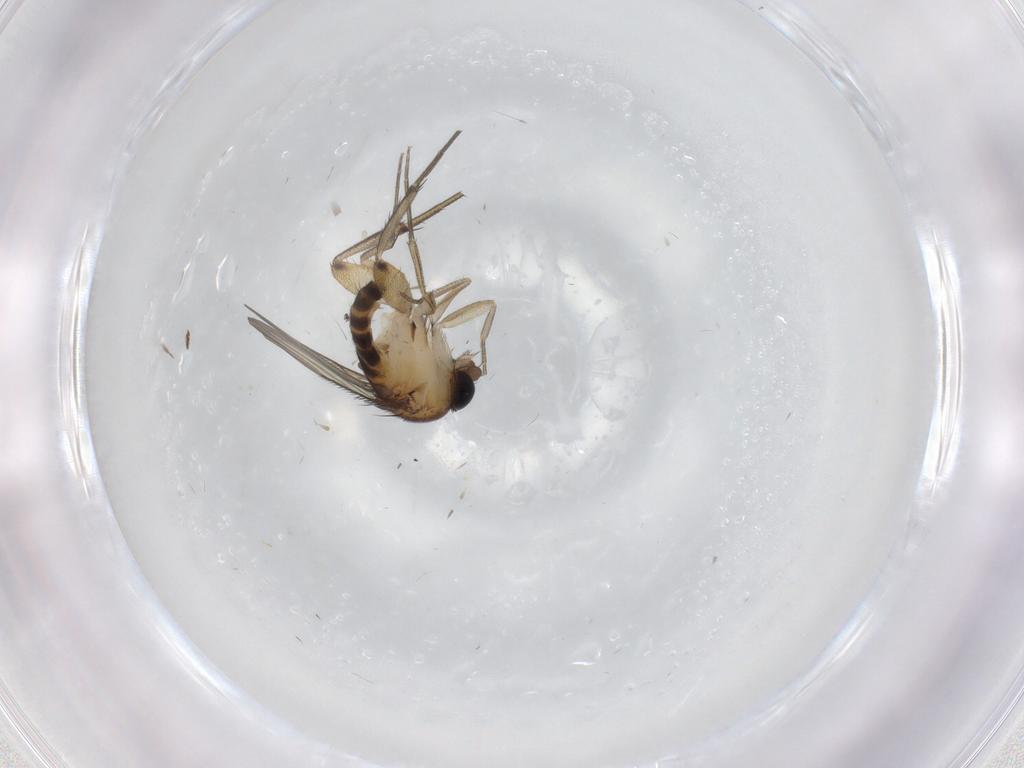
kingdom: Animalia
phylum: Arthropoda
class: Insecta
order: Diptera
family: Phoridae
